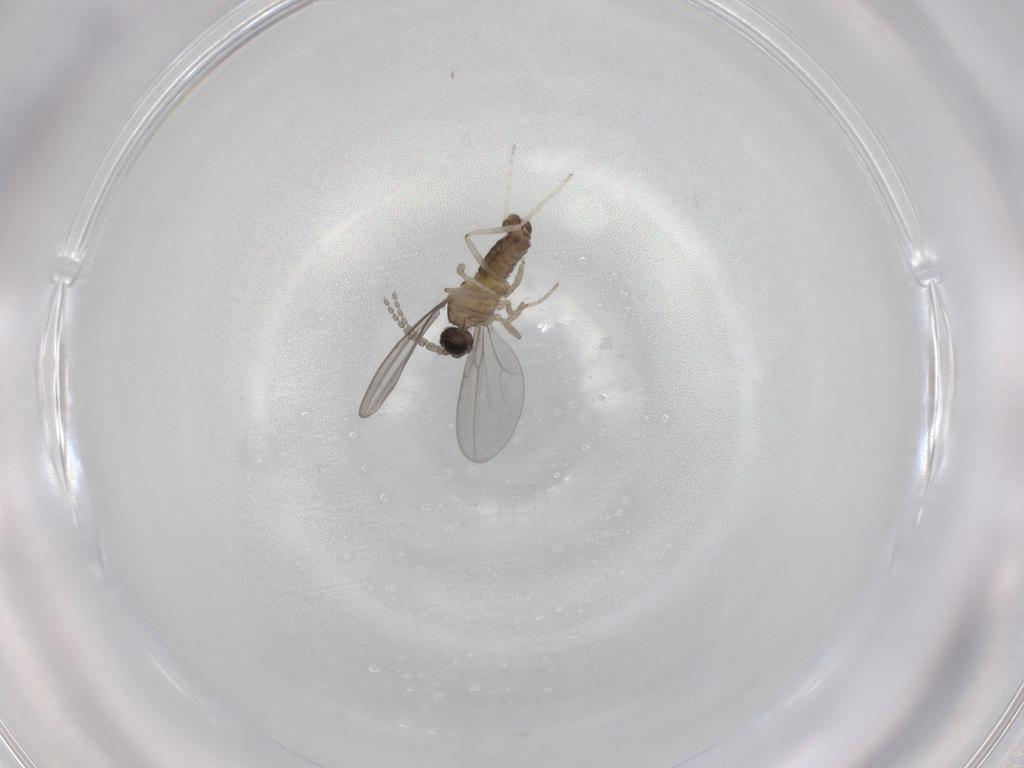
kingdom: Animalia
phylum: Arthropoda
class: Insecta
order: Diptera
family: Cecidomyiidae
